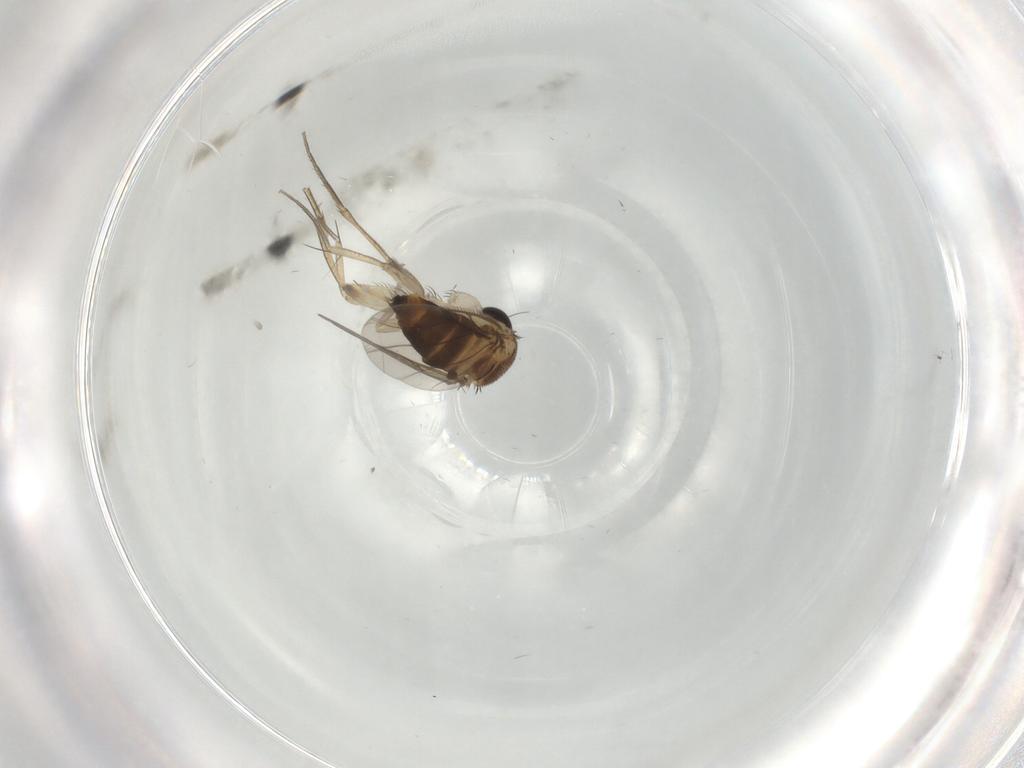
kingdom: Animalia
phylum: Arthropoda
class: Insecta
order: Diptera
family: Phoridae
